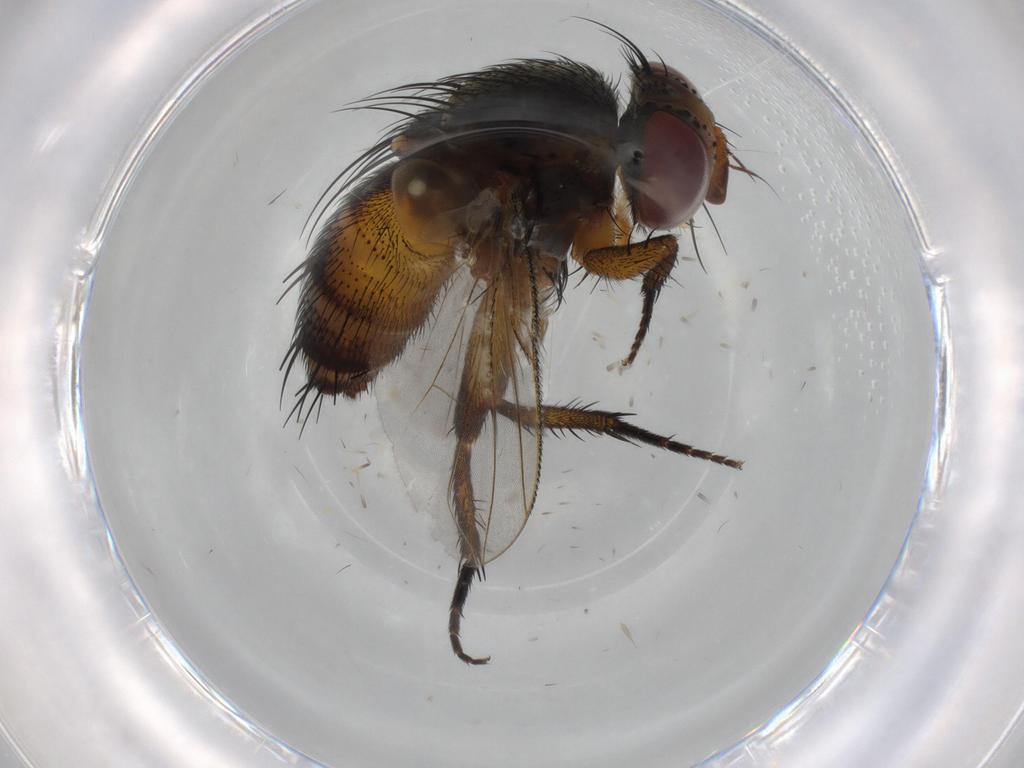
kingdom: Animalia
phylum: Arthropoda
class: Insecta
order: Diptera
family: Cecidomyiidae
